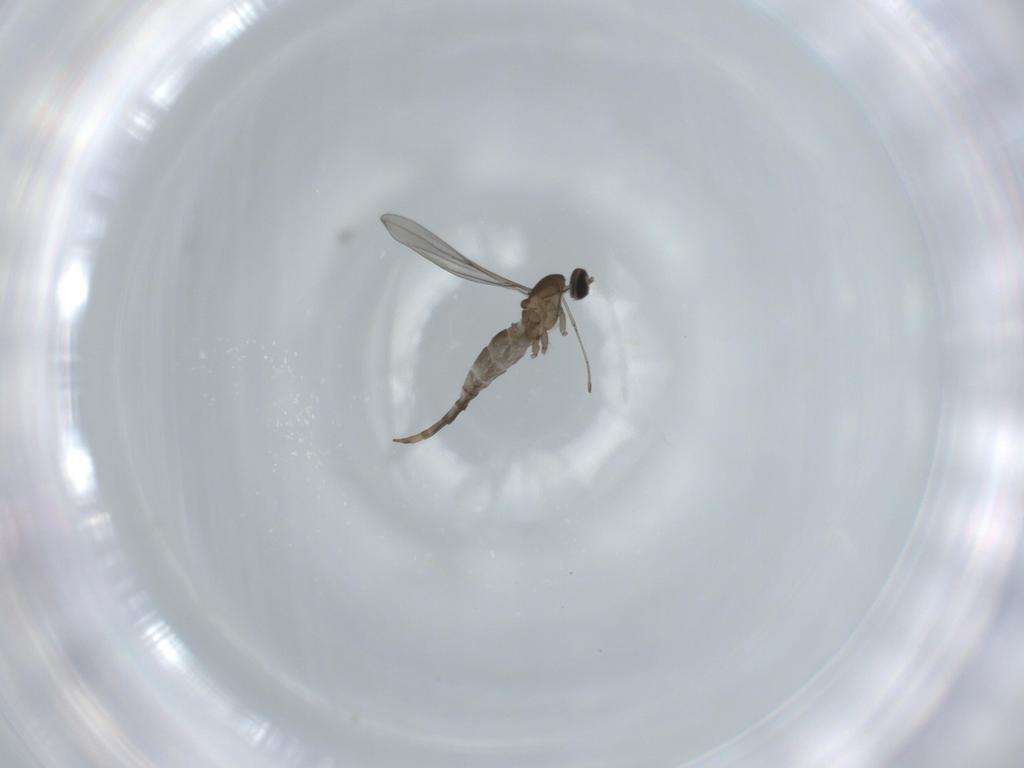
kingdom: Animalia
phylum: Arthropoda
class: Insecta
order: Diptera
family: Cecidomyiidae
